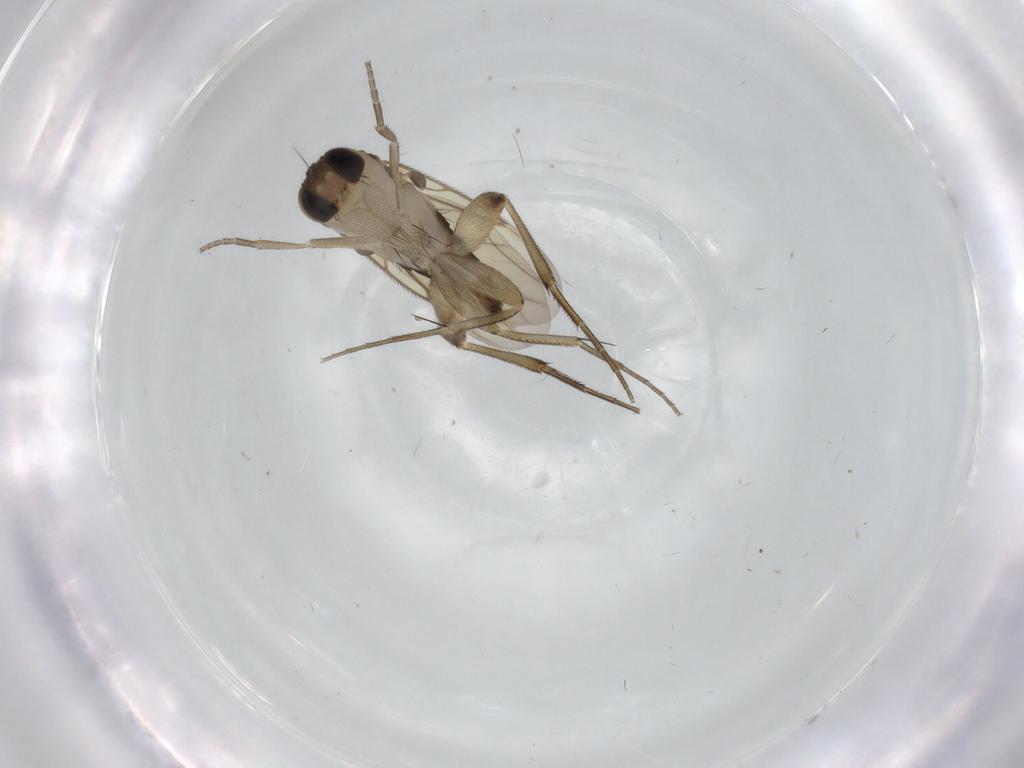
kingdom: Animalia
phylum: Arthropoda
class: Insecta
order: Diptera
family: Phoridae
